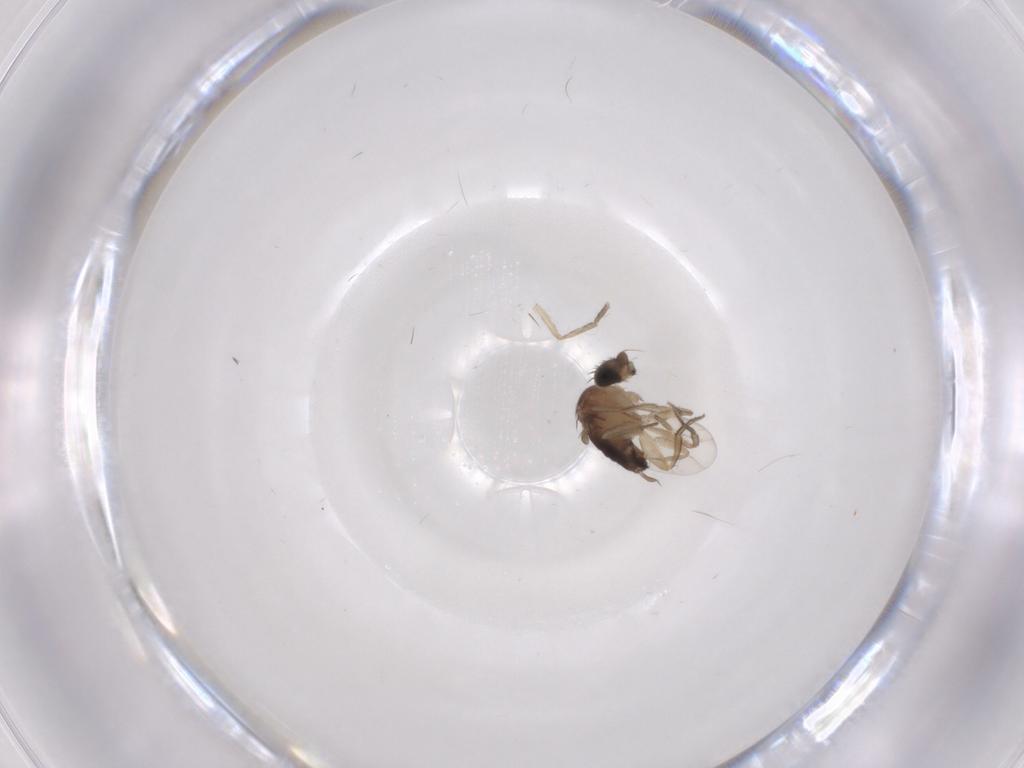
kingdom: Animalia
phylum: Arthropoda
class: Insecta
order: Diptera
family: Phoridae
